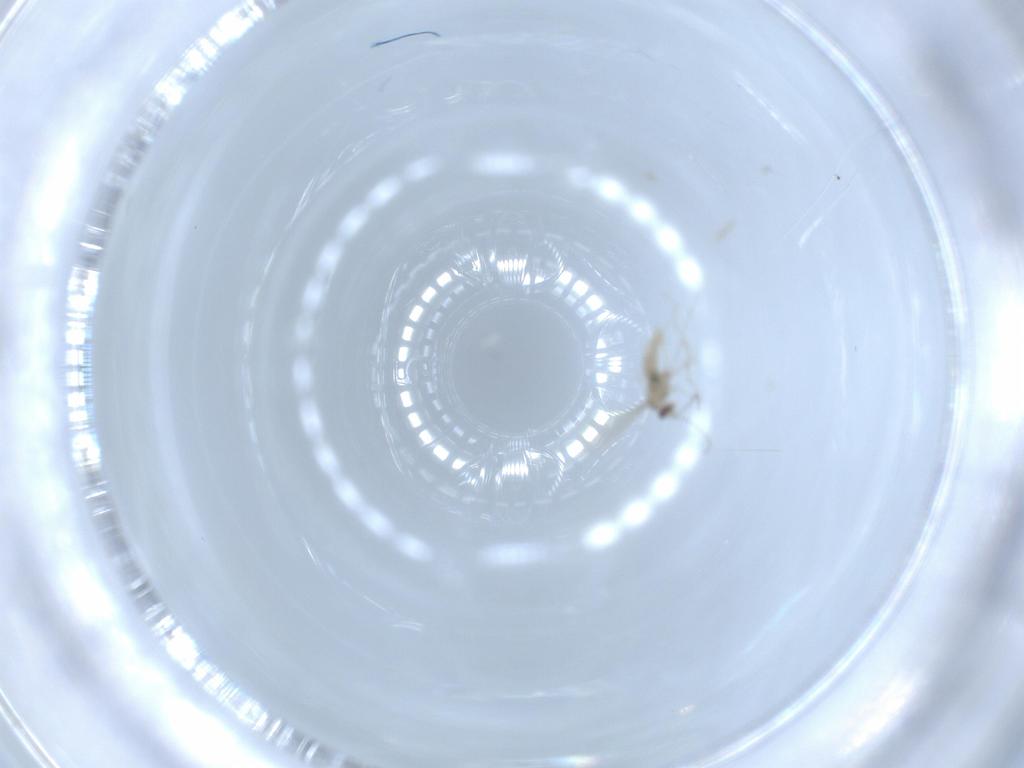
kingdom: Animalia
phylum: Arthropoda
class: Insecta
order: Diptera
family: Cecidomyiidae
